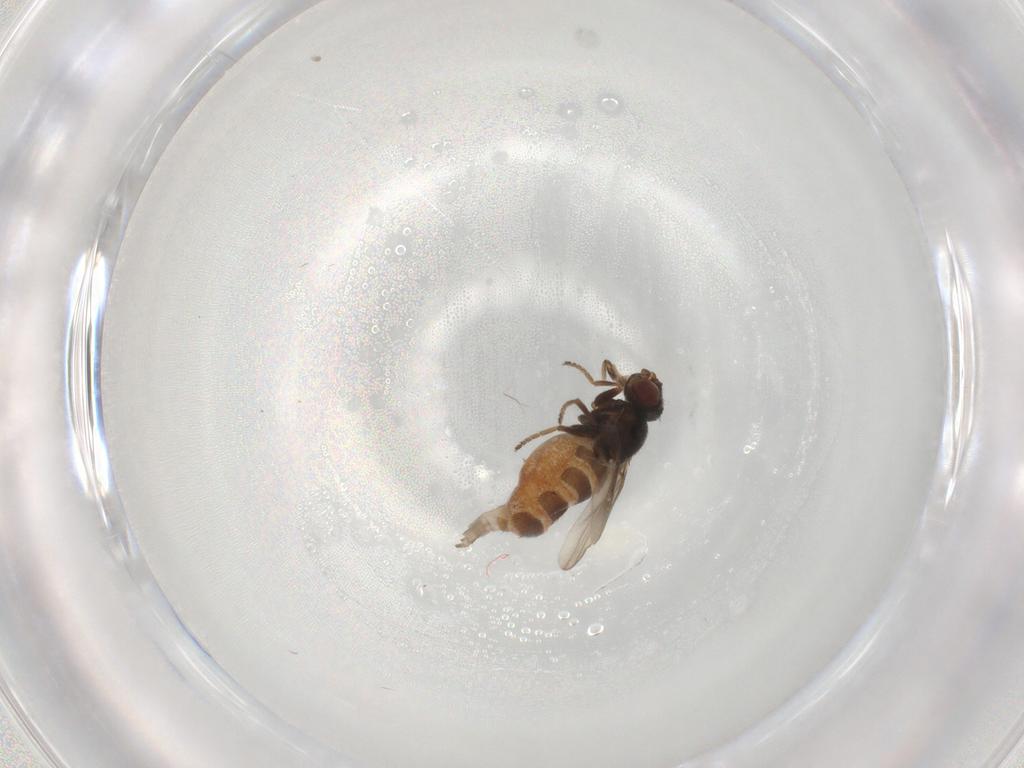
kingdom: Animalia
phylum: Arthropoda
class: Insecta
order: Diptera
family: Chloropidae
